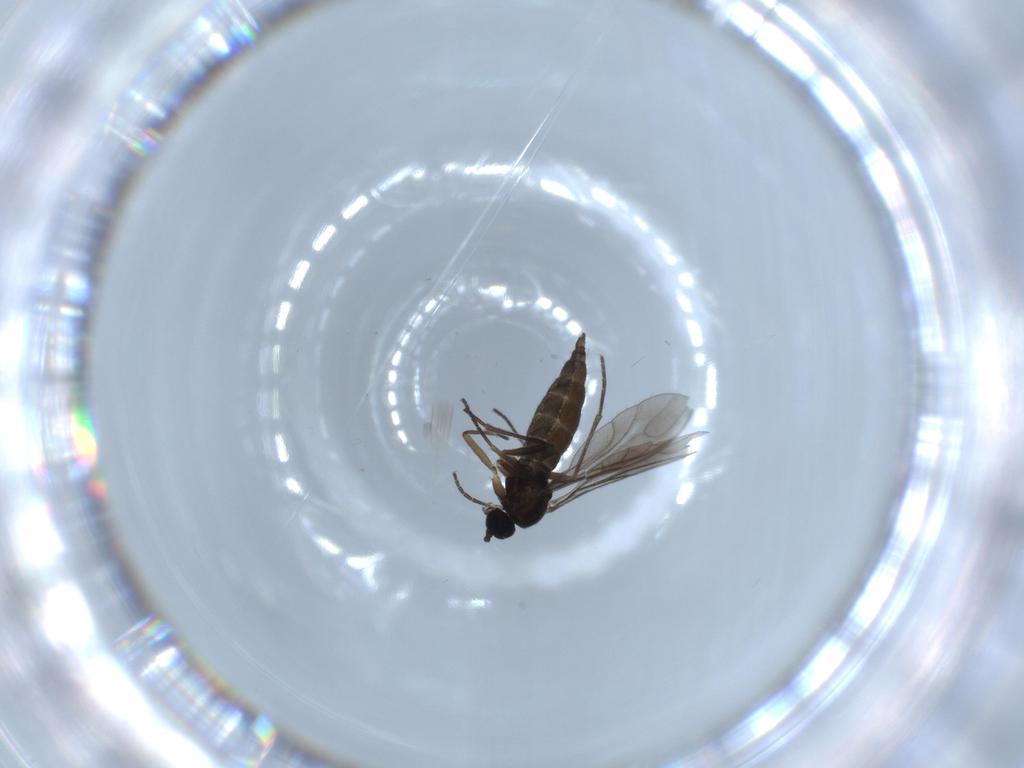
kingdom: Animalia
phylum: Arthropoda
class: Insecta
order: Diptera
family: Sciaridae
